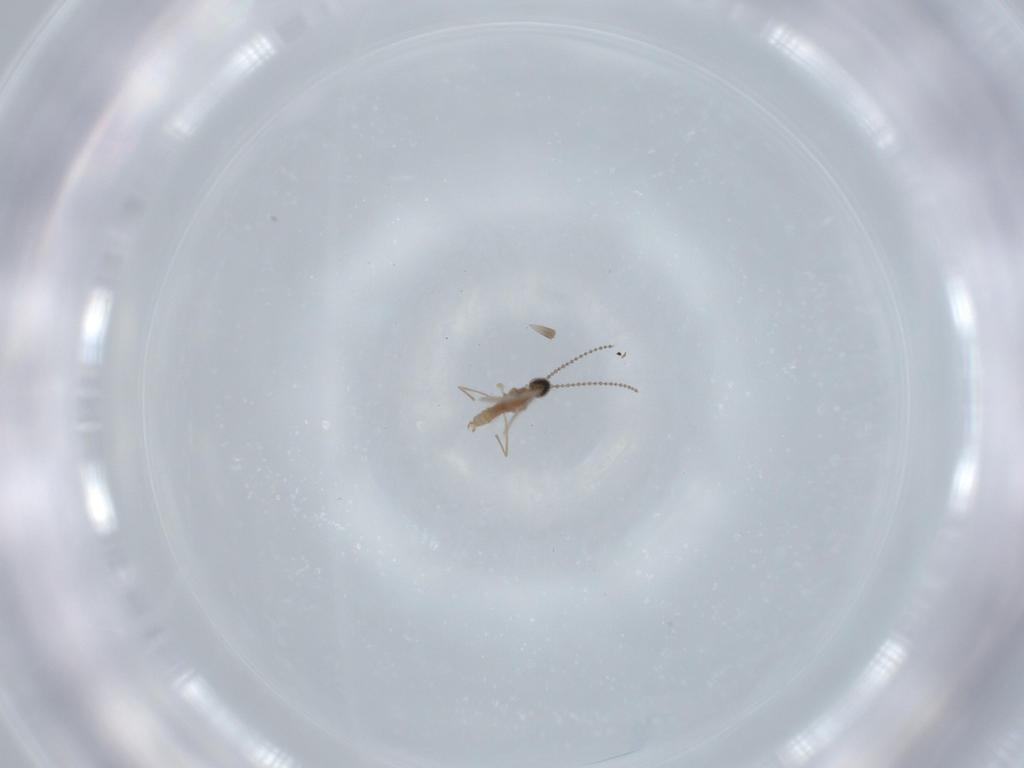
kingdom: Animalia
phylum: Arthropoda
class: Insecta
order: Diptera
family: Cecidomyiidae
